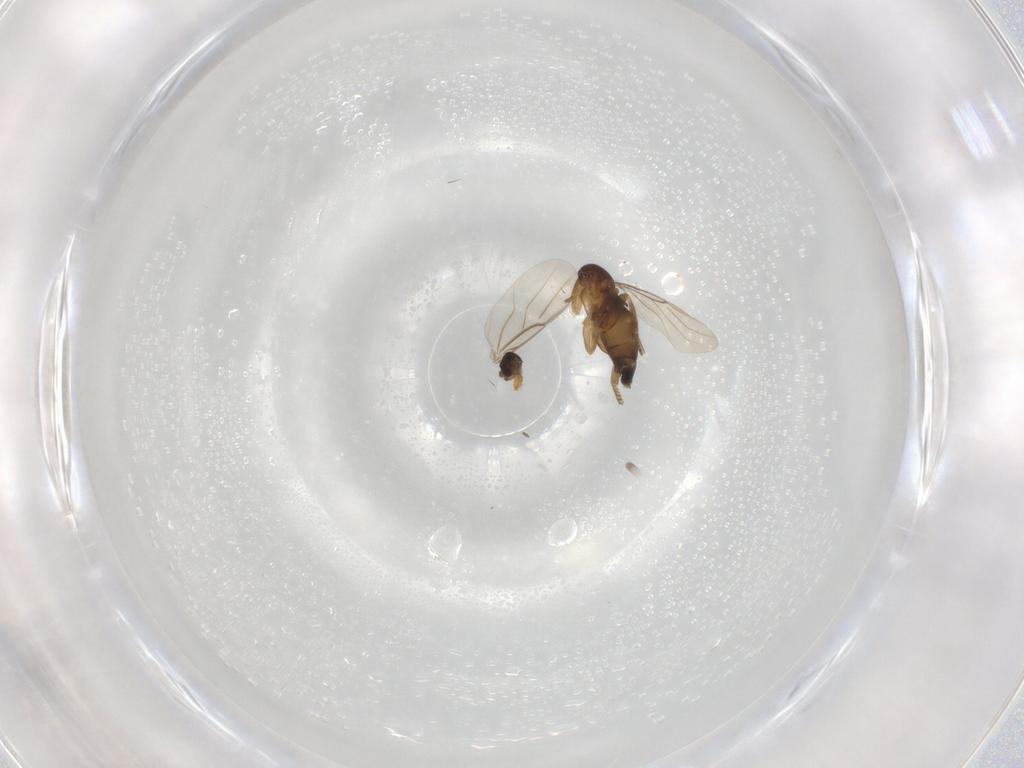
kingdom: Animalia
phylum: Arthropoda
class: Insecta
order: Diptera
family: Phoridae
